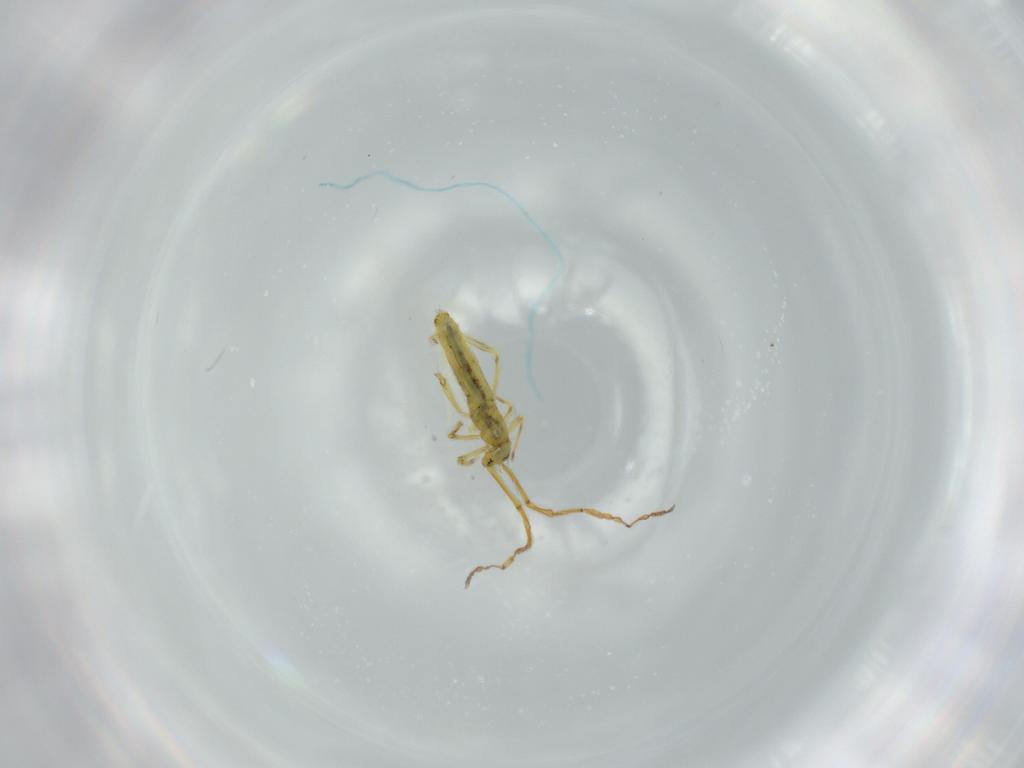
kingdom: Animalia
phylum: Arthropoda
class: Collembola
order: Entomobryomorpha
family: Paronellidae
